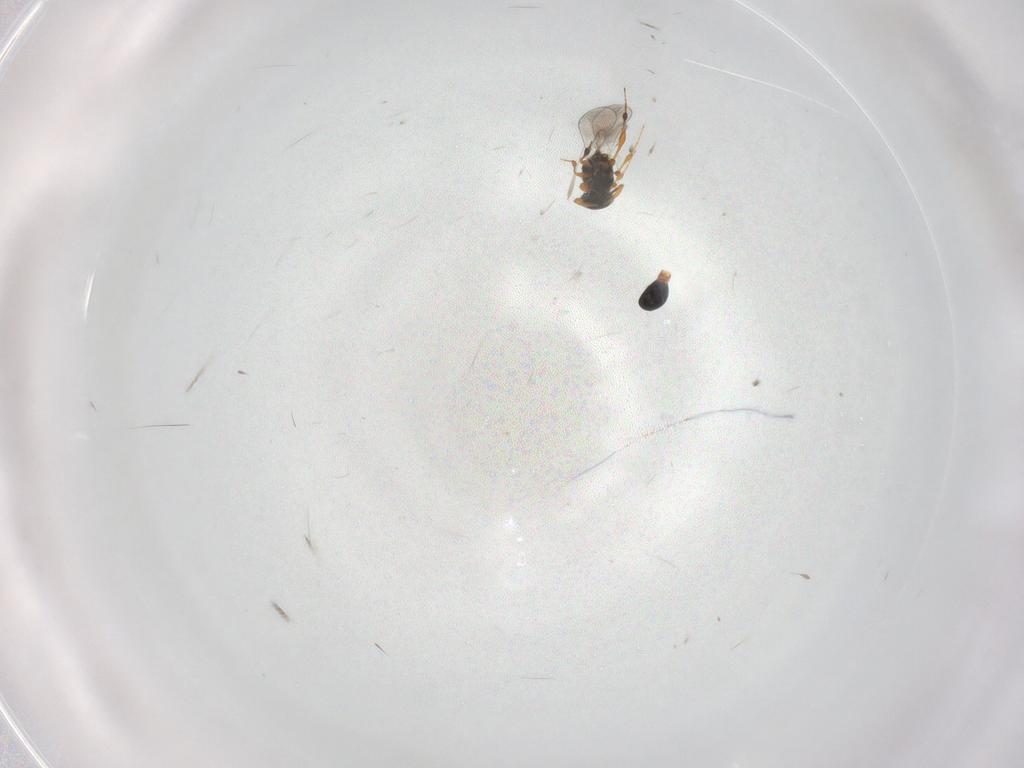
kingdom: Animalia
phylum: Arthropoda
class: Insecta
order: Hymenoptera
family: Platygastridae
